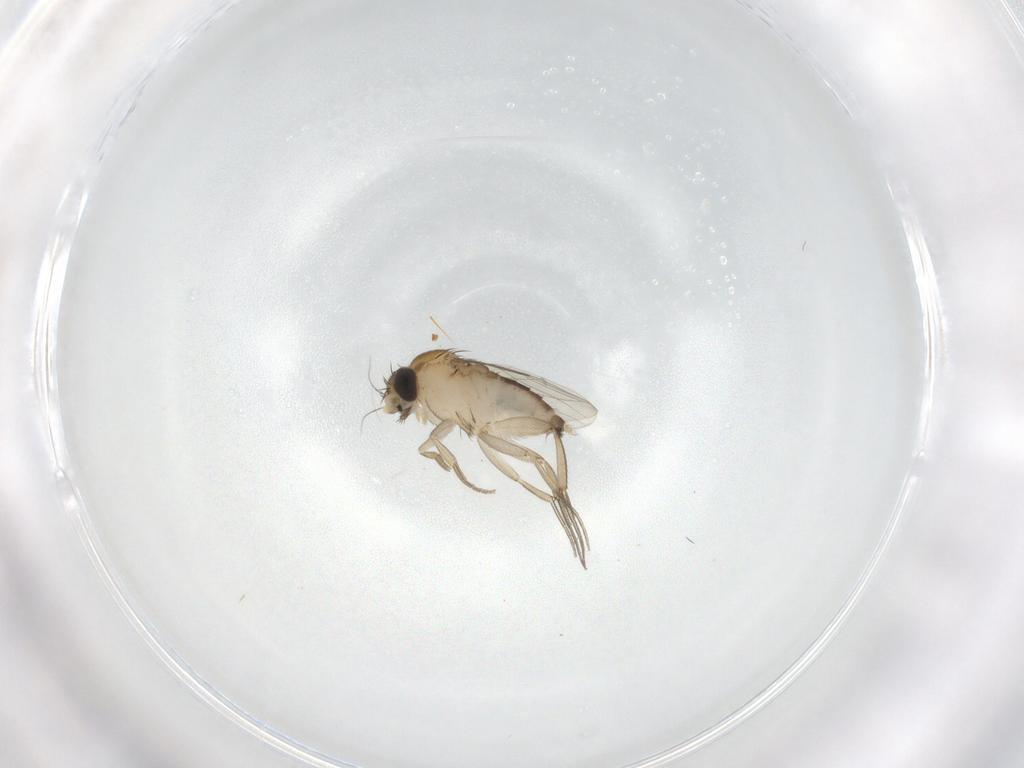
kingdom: Animalia
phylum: Arthropoda
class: Insecta
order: Diptera
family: Phoridae
